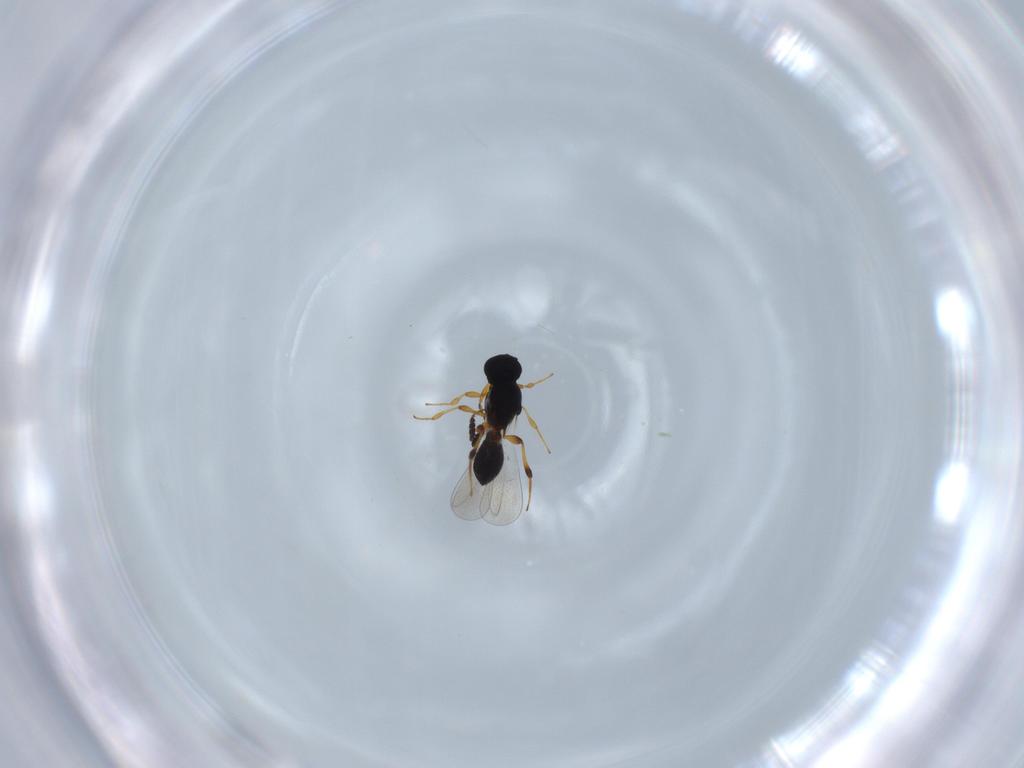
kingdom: Animalia
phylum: Arthropoda
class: Insecta
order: Hymenoptera
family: Platygastridae
